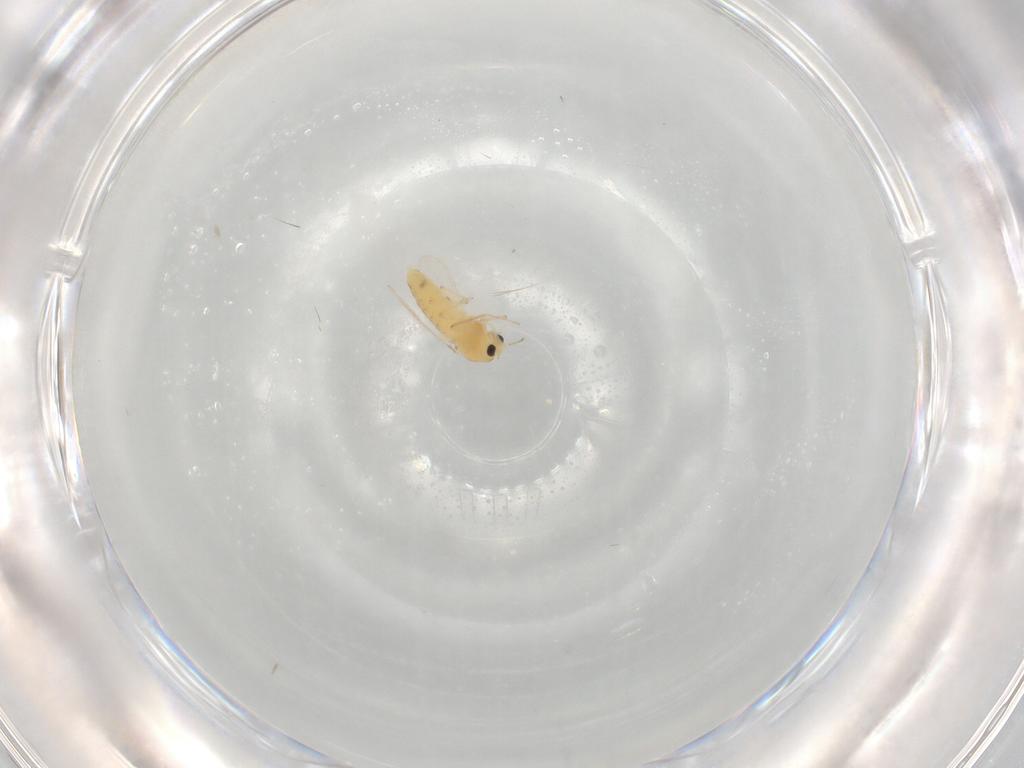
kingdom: Animalia
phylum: Arthropoda
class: Insecta
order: Diptera
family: Chironomidae
